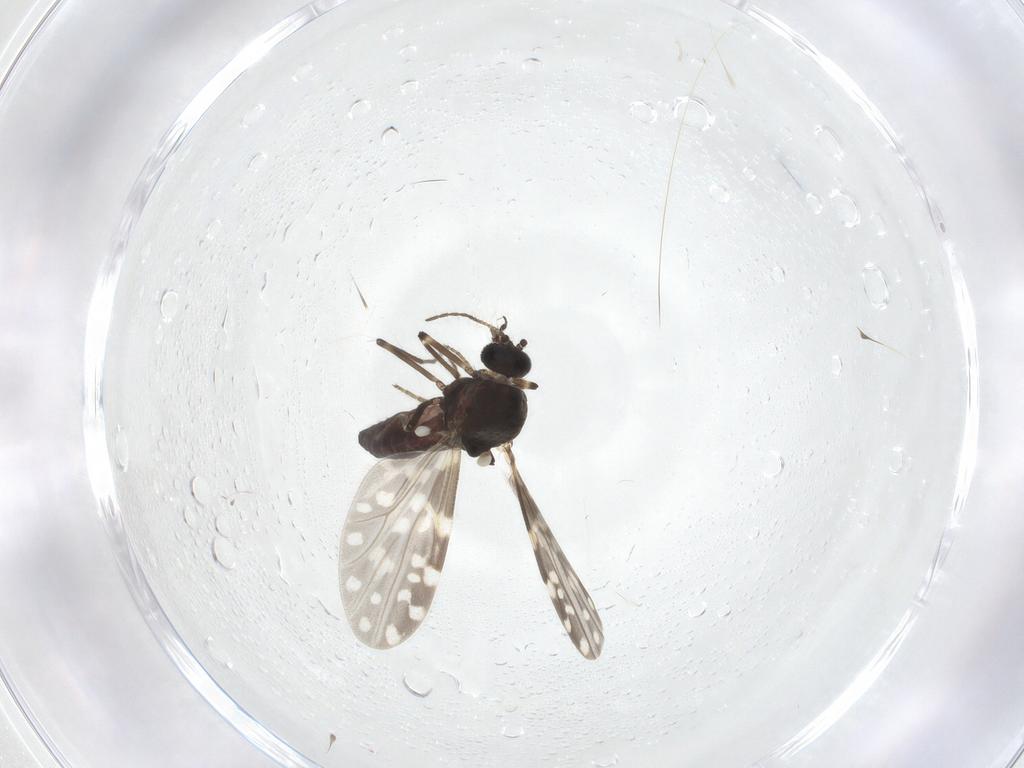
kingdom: Animalia
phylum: Arthropoda
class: Insecta
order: Diptera
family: Ceratopogonidae
